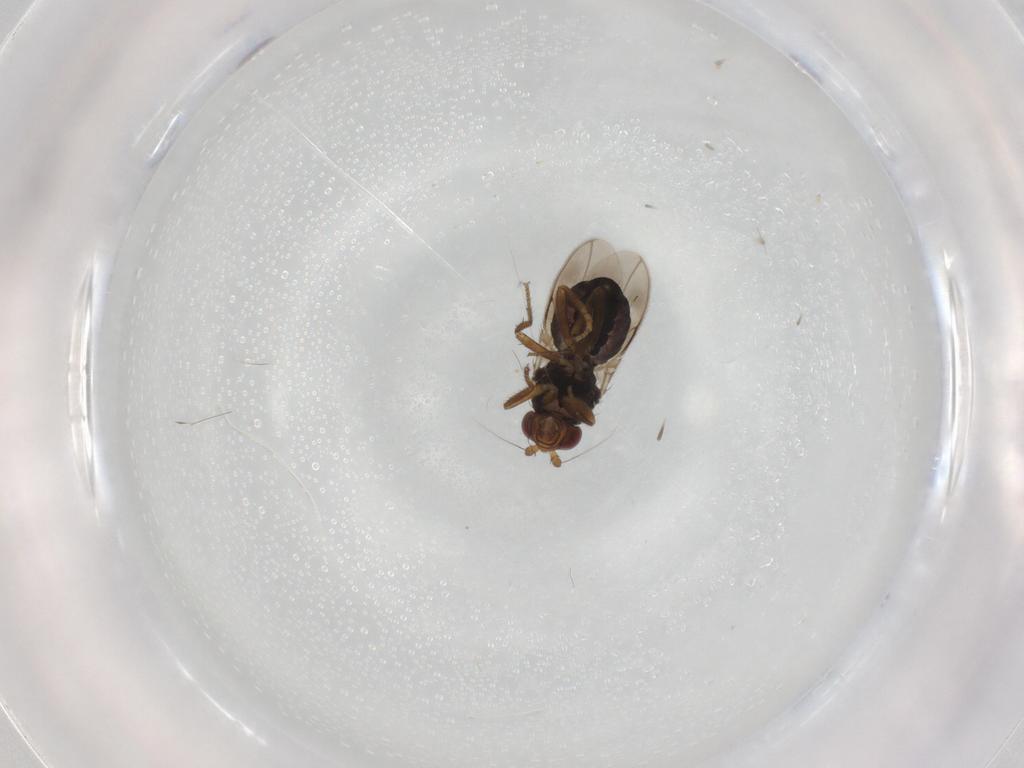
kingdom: Animalia
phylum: Arthropoda
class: Insecta
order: Diptera
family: Sphaeroceridae
